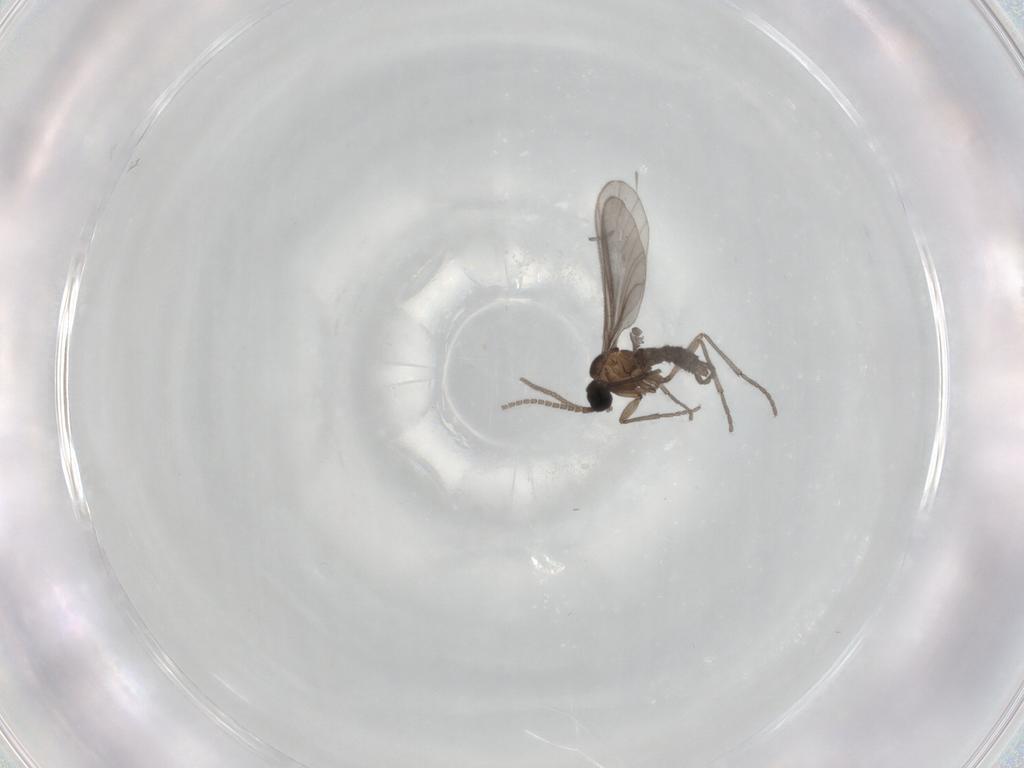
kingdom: Animalia
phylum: Arthropoda
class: Insecta
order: Diptera
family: Sciaridae
